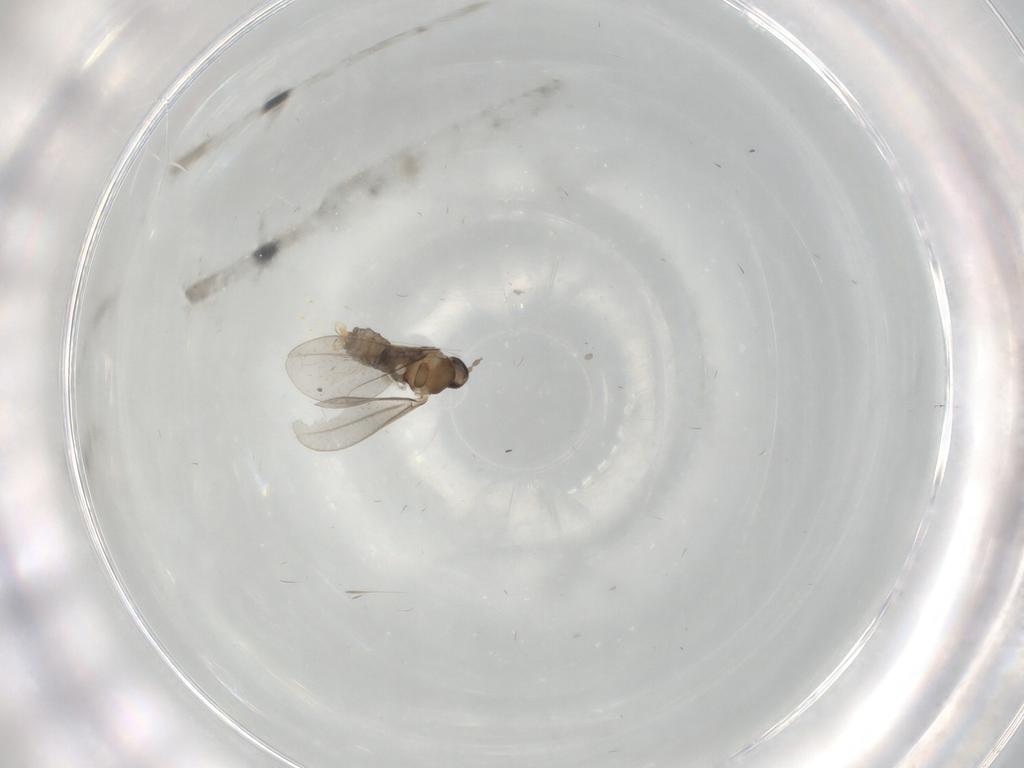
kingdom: Animalia
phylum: Arthropoda
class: Insecta
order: Diptera
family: Cecidomyiidae
